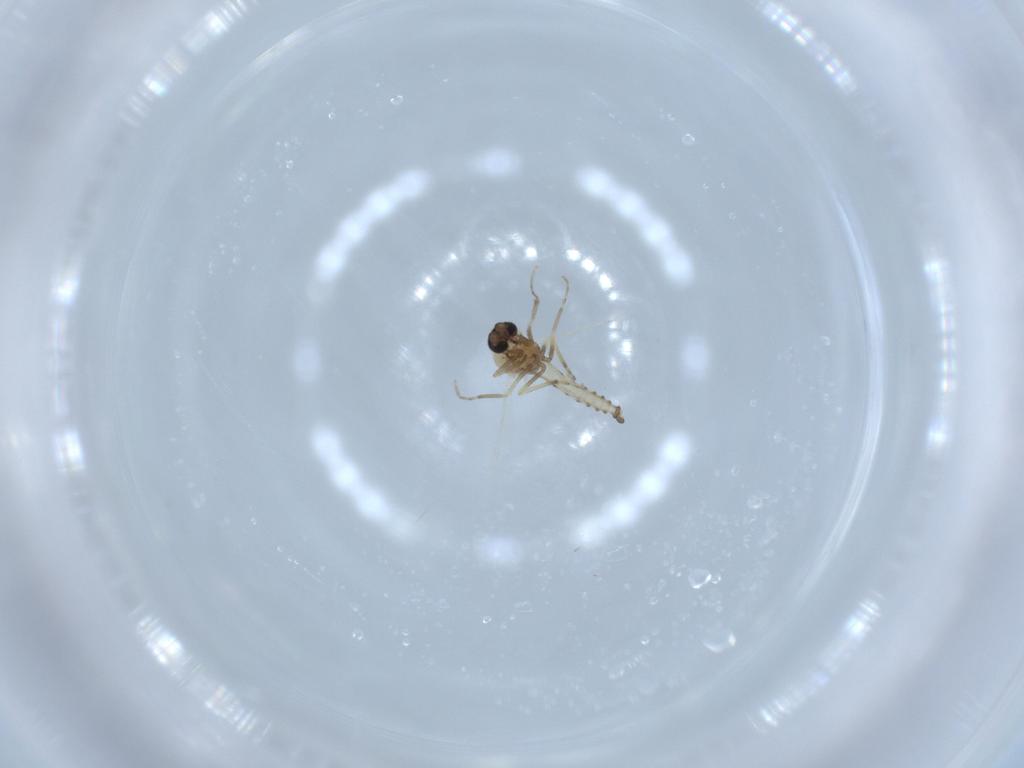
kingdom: Animalia
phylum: Arthropoda
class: Insecta
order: Diptera
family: Ceratopogonidae
